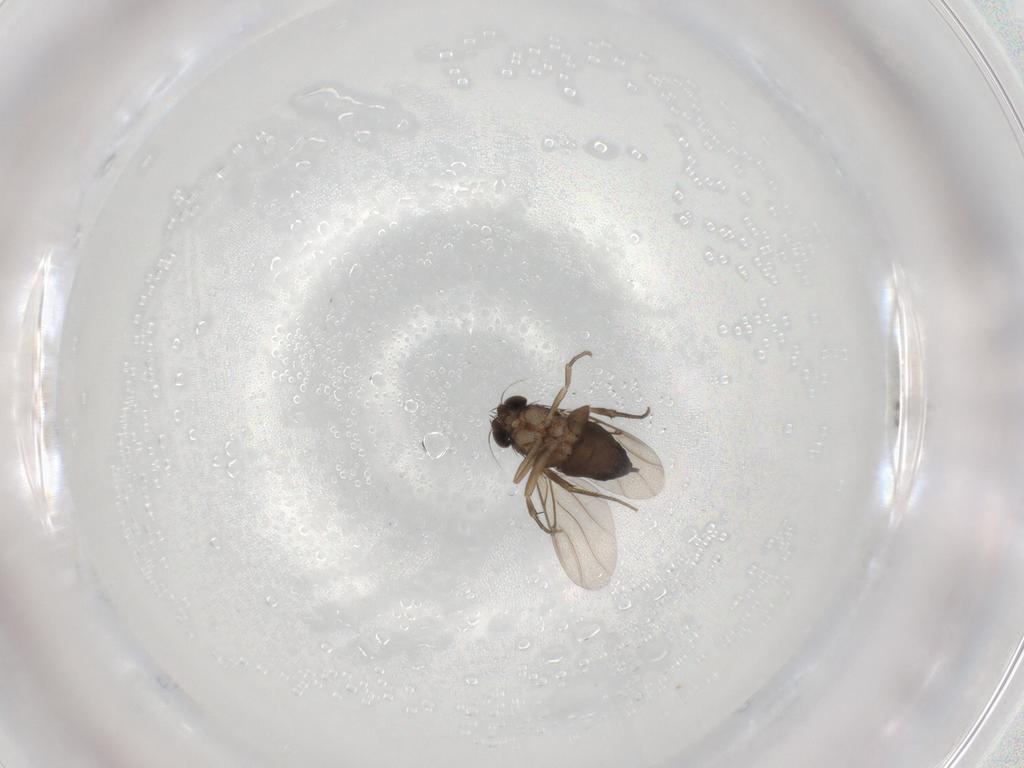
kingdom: Animalia
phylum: Arthropoda
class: Insecta
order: Diptera
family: Phoridae
